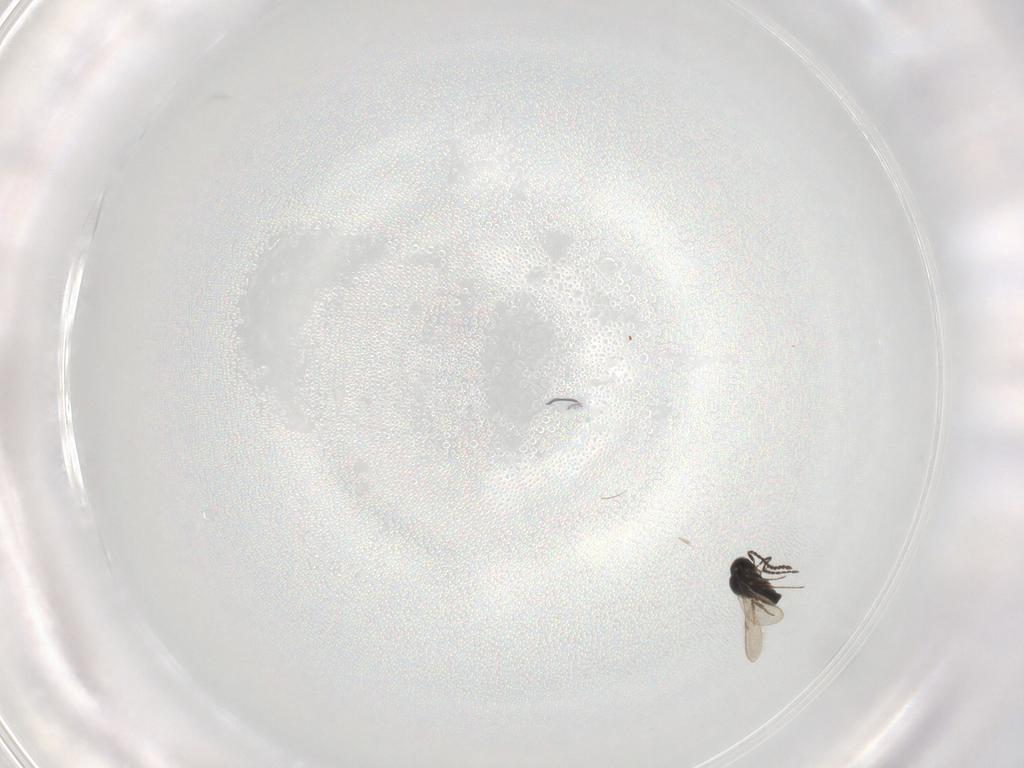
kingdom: Animalia
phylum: Arthropoda
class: Insecta
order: Hymenoptera
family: Scelionidae
